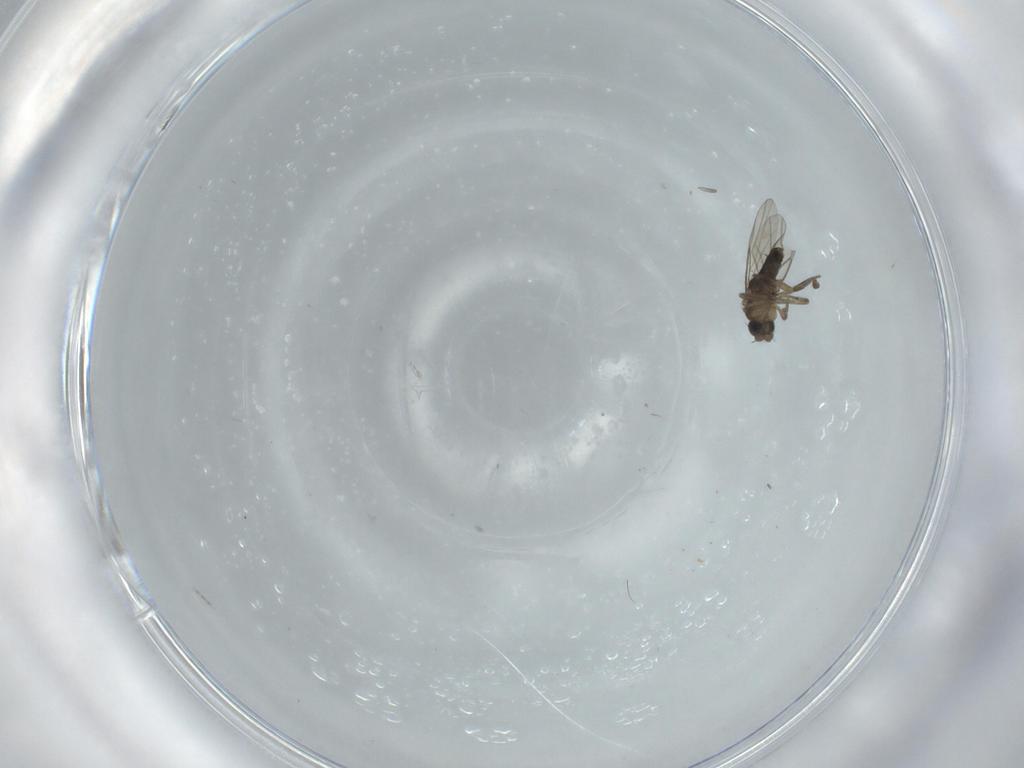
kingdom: Animalia
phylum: Arthropoda
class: Insecta
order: Diptera
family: Phoridae
